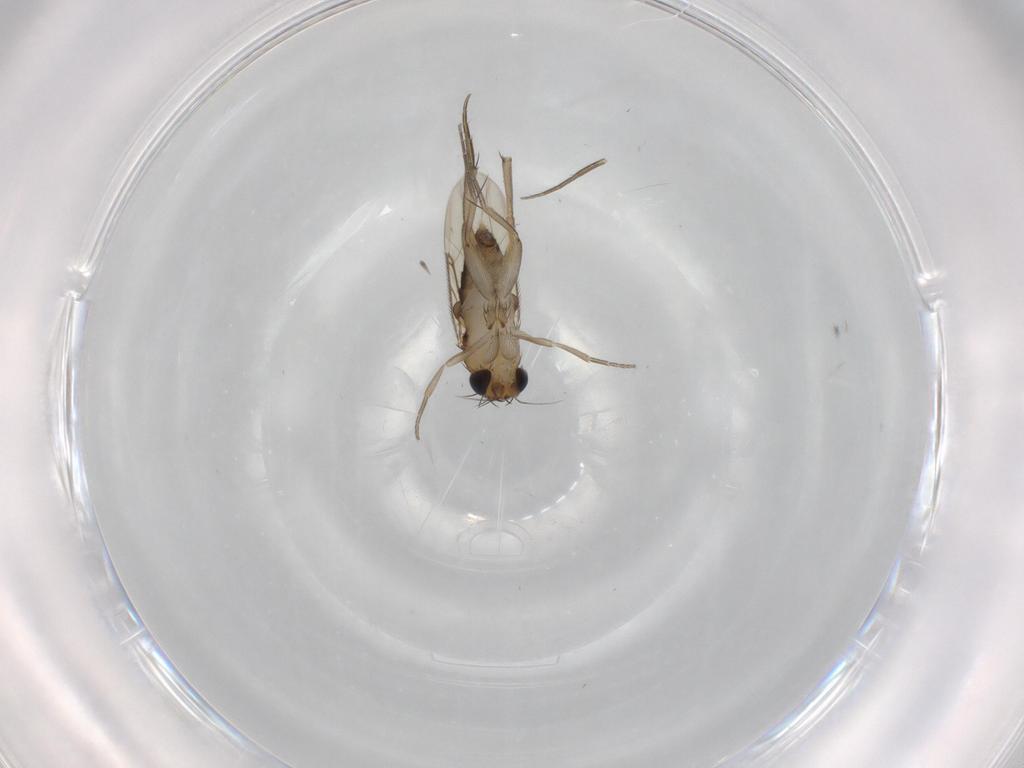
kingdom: Animalia
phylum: Arthropoda
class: Insecta
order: Diptera
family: Phoridae
